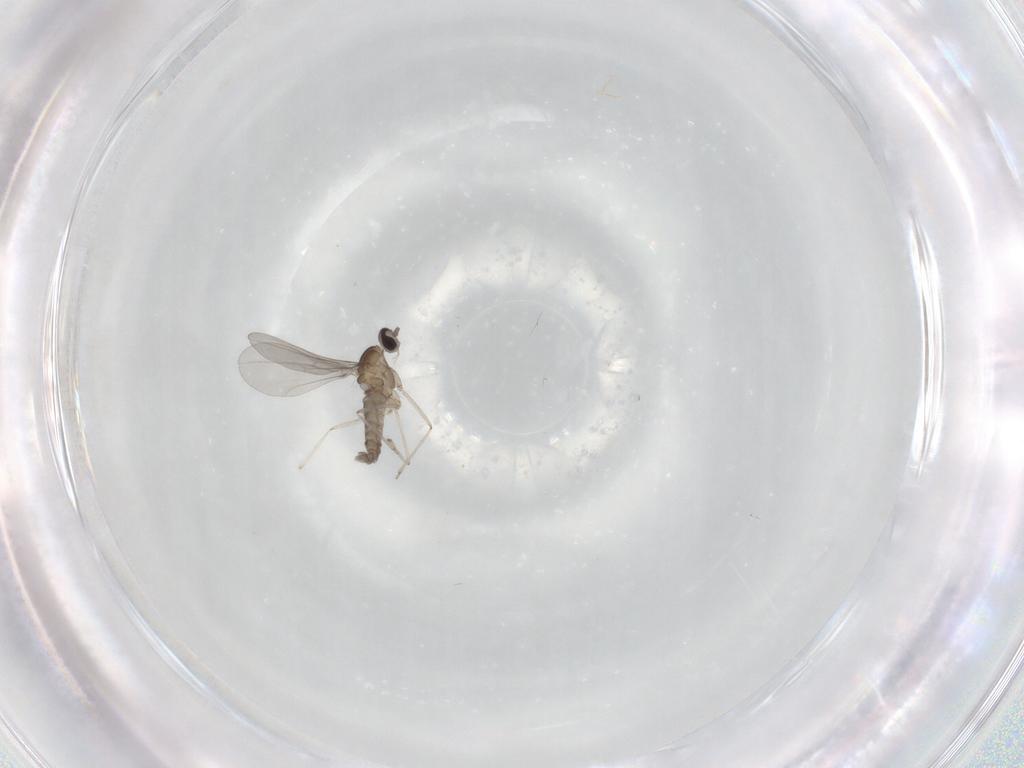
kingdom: Animalia
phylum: Arthropoda
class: Insecta
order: Diptera
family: Cecidomyiidae
